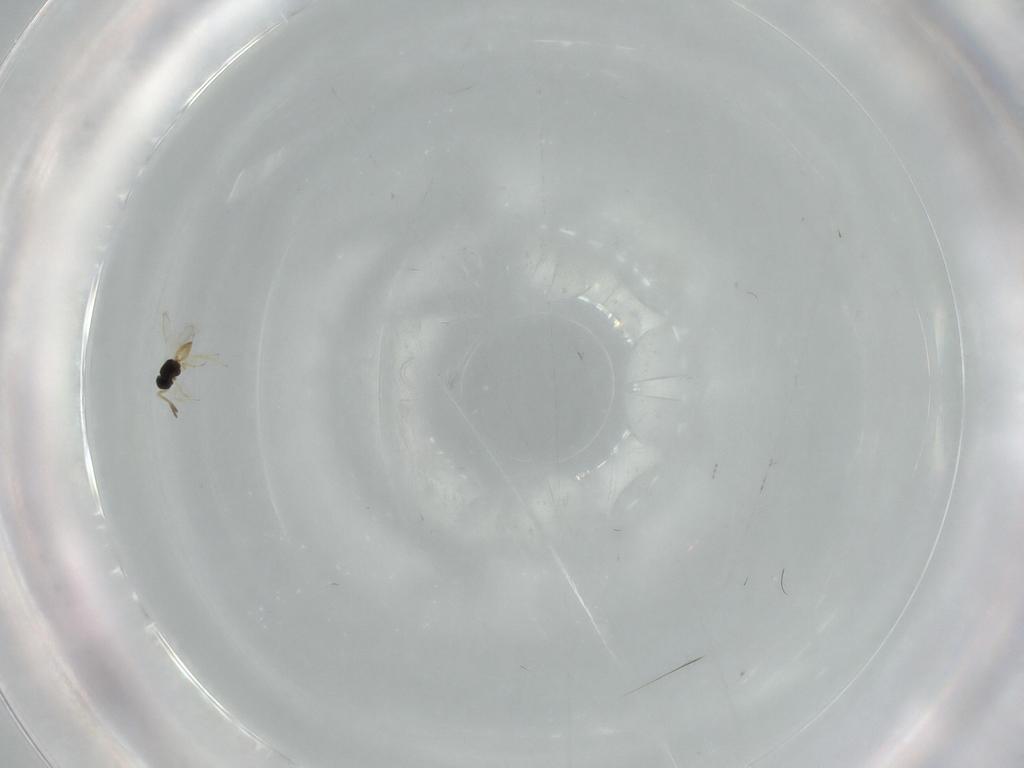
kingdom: Animalia
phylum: Arthropoda
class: Insecta
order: Hymenoptera
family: Scelionidae
